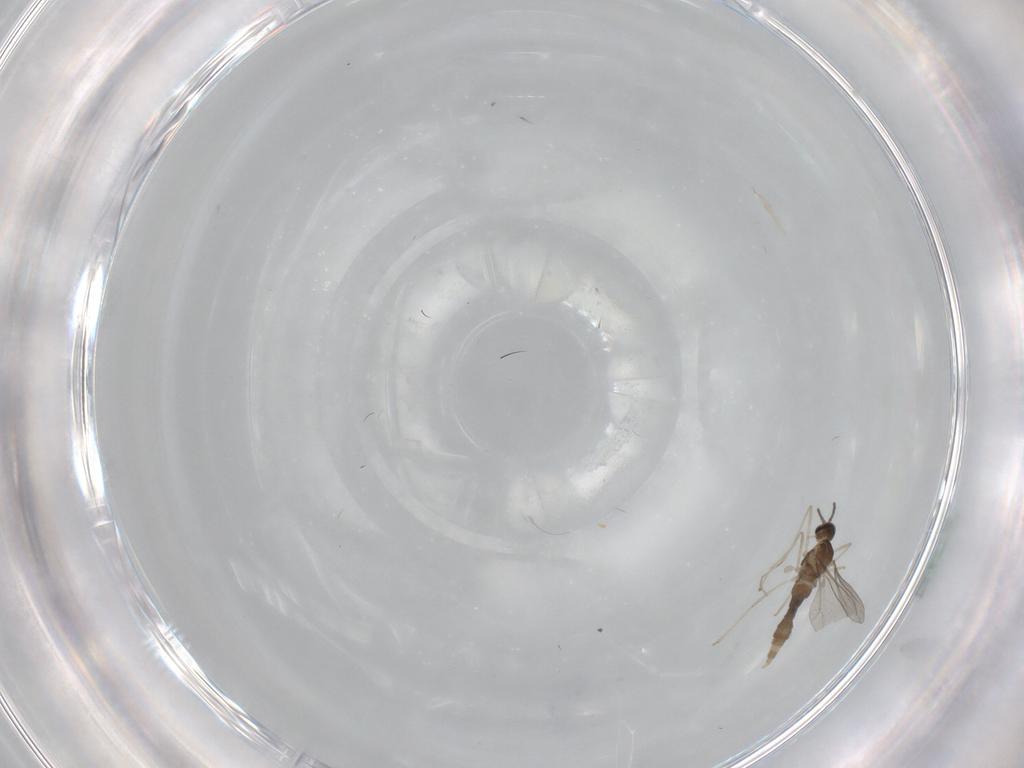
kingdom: Animalia
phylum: Arthropoda
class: Insecta
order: Diptera
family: Phoridae
